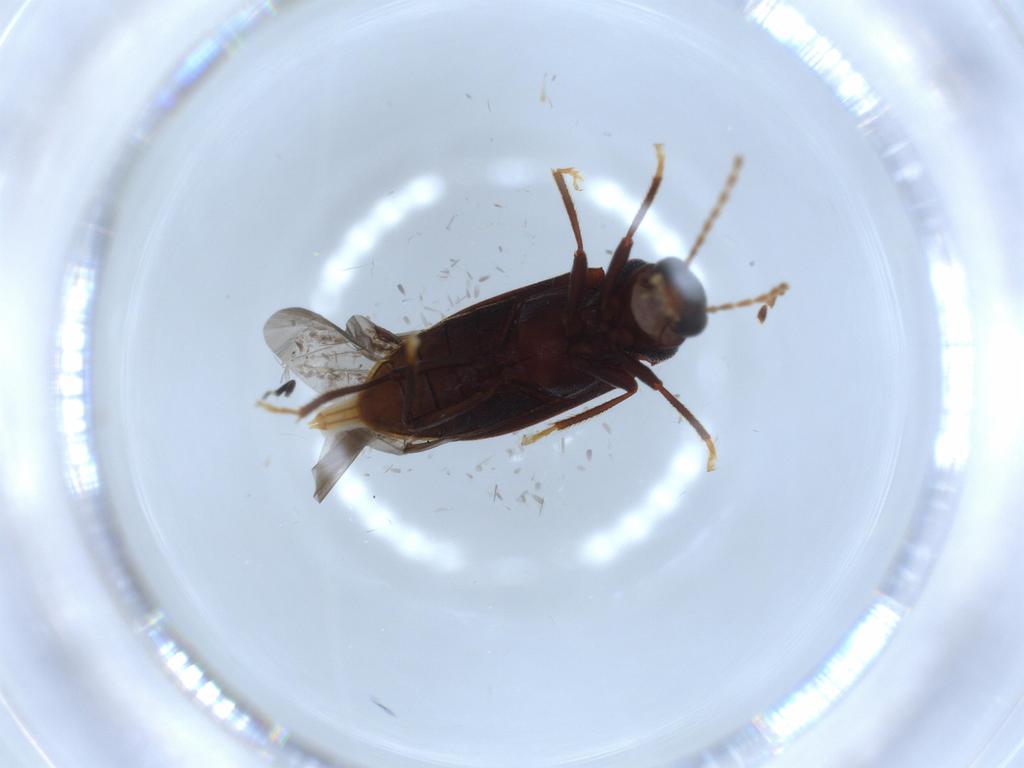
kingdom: Animalia
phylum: Arthropoda
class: Insecta
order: Coleoptera
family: Ptilodactylidae
